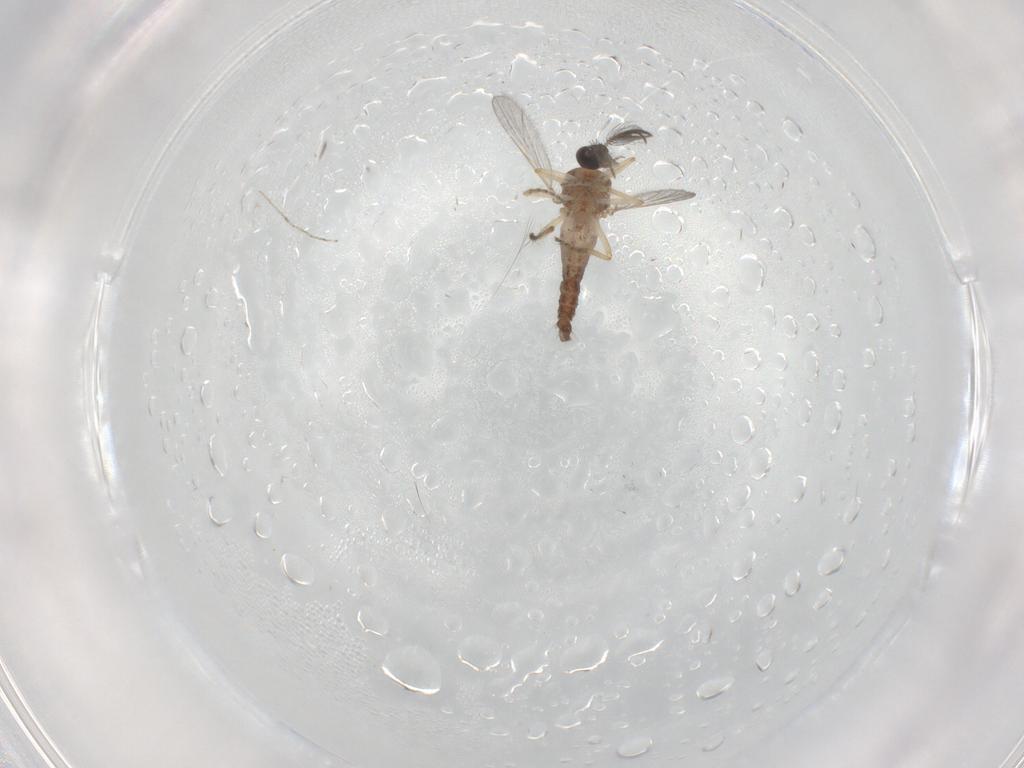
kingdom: Animalia
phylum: Arthropoda
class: Insecta
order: Diptera
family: Ceratopogonidae
